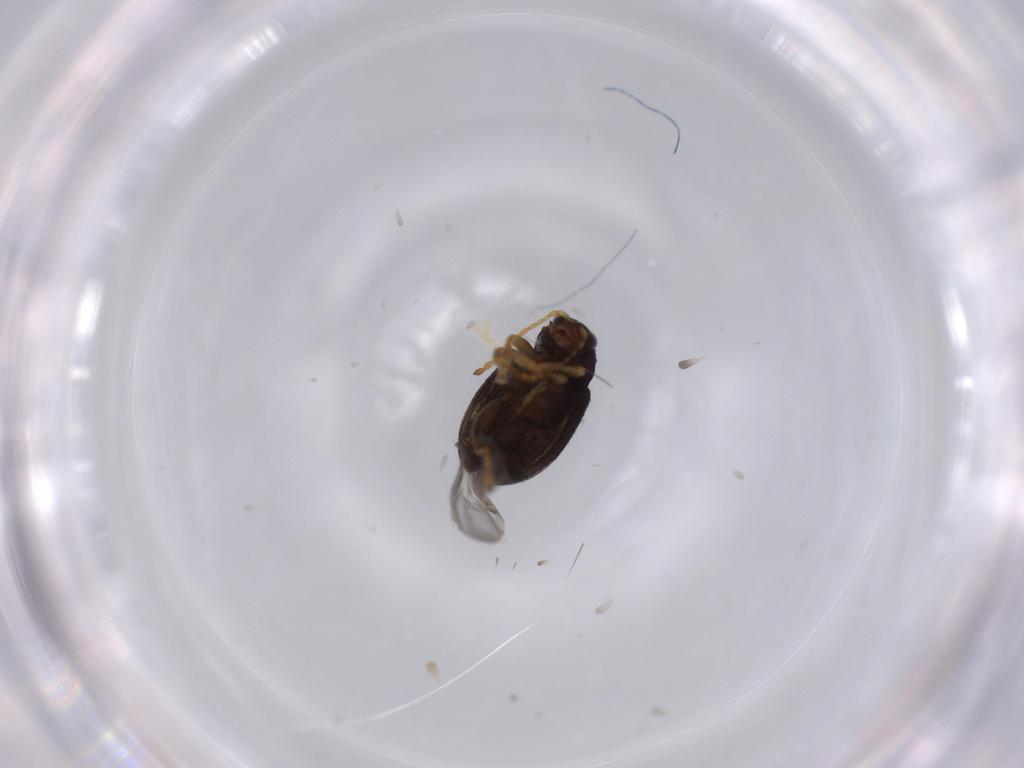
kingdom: Animalia
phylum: Arthropoda
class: Insecta
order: Coleoptera
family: Chrysomelidae
